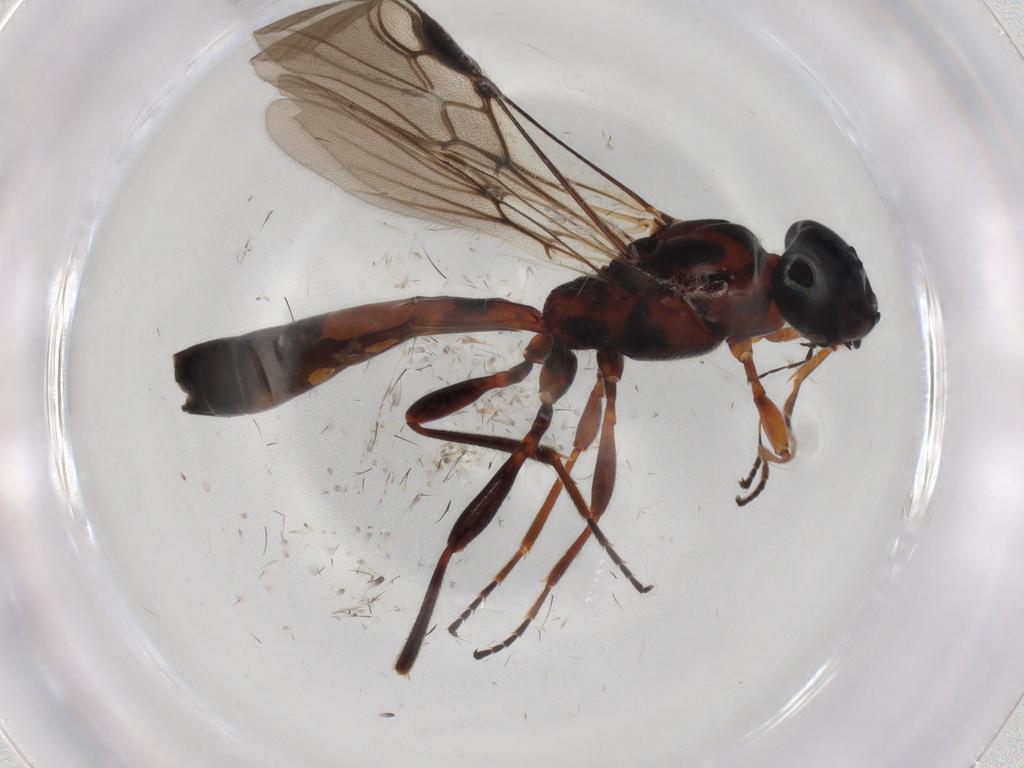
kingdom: Animalia
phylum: Arthropoda
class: Insecta
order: Hymenoptera
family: Braconidae
